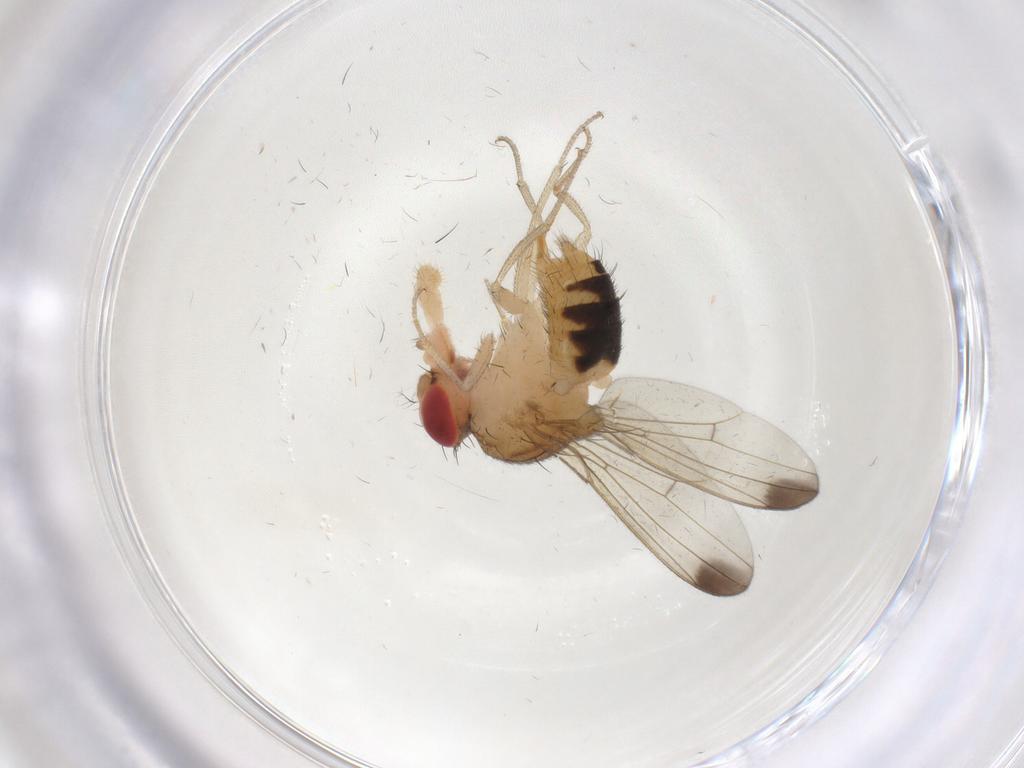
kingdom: Animalia
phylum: Arthropoda
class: Insecta
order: Diptera
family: Drosophilidae
